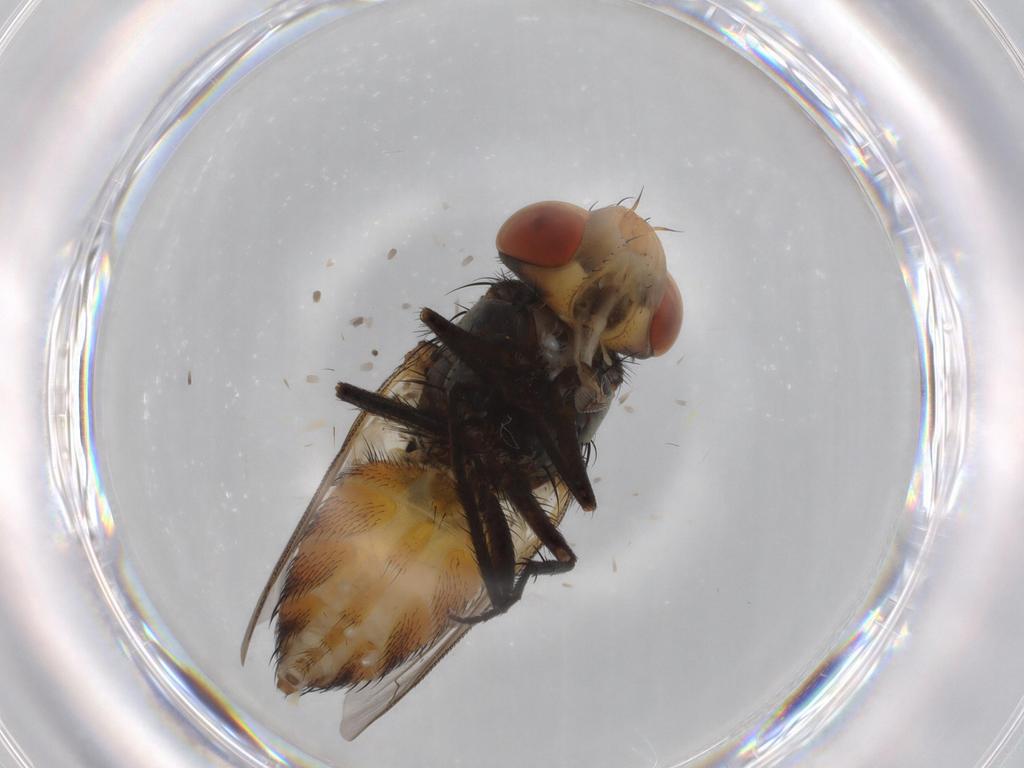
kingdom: Animalia
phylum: Arthropoda
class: Insecta
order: Diptera
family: Sarcophagidae
